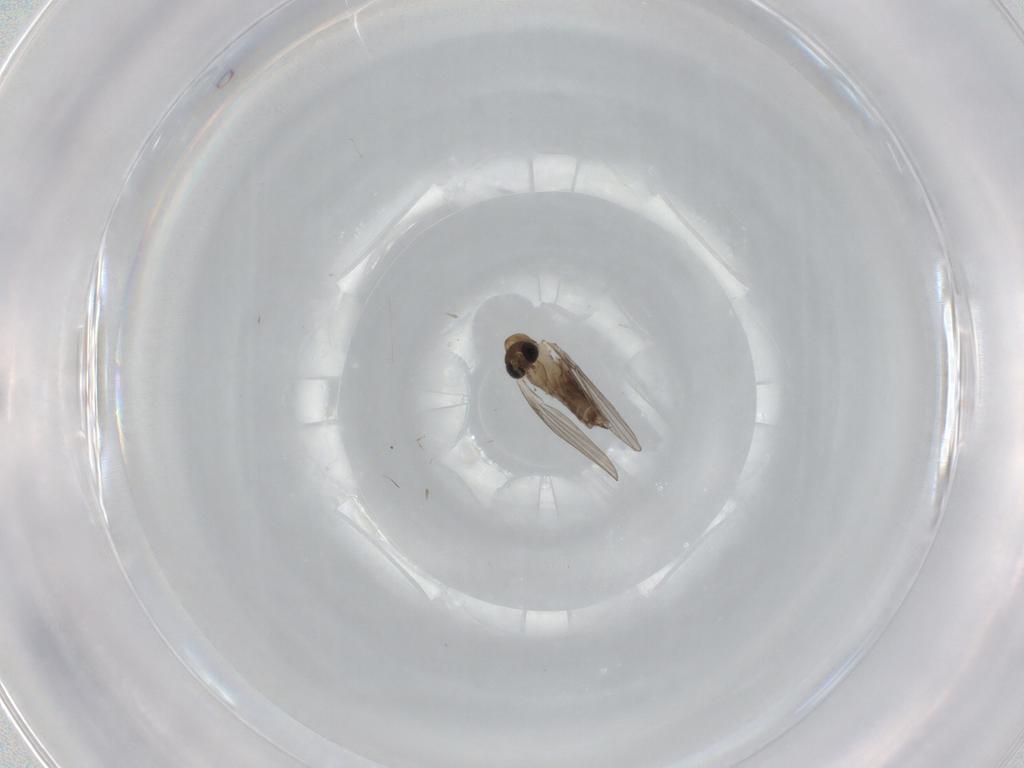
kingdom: Animalia
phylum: Arthropoda
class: Insecta
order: Diptera
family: Psychodidae
